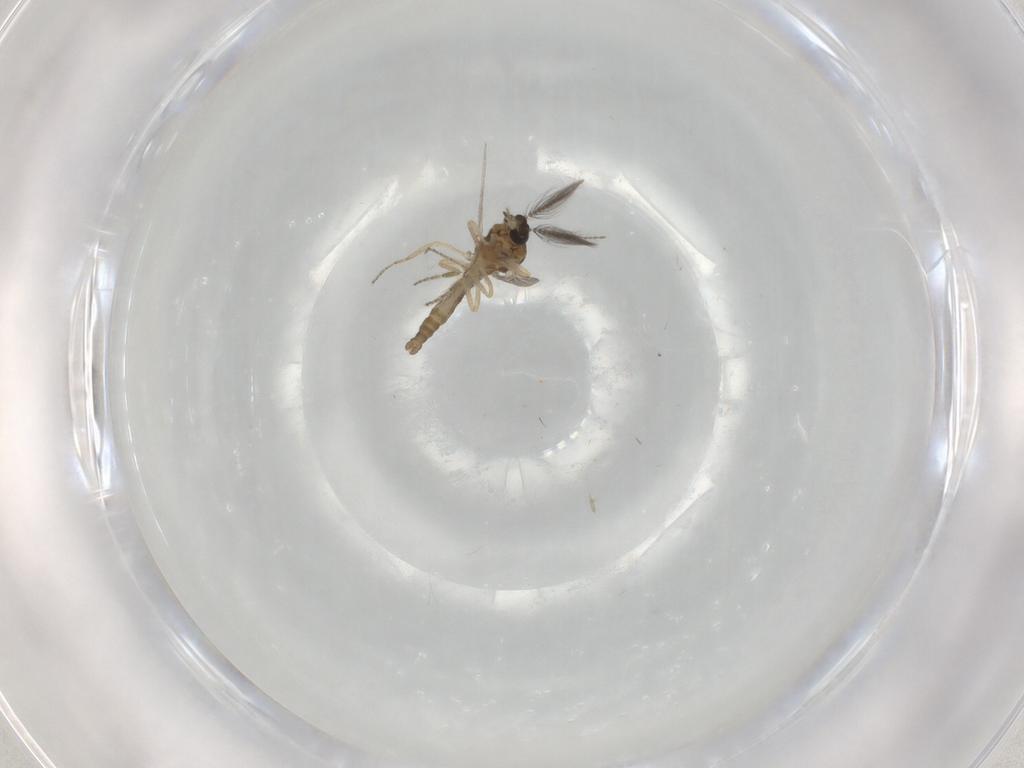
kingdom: Animalia
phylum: Arthropoda
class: Insecta
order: Diptera
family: Ceratopogonidae
